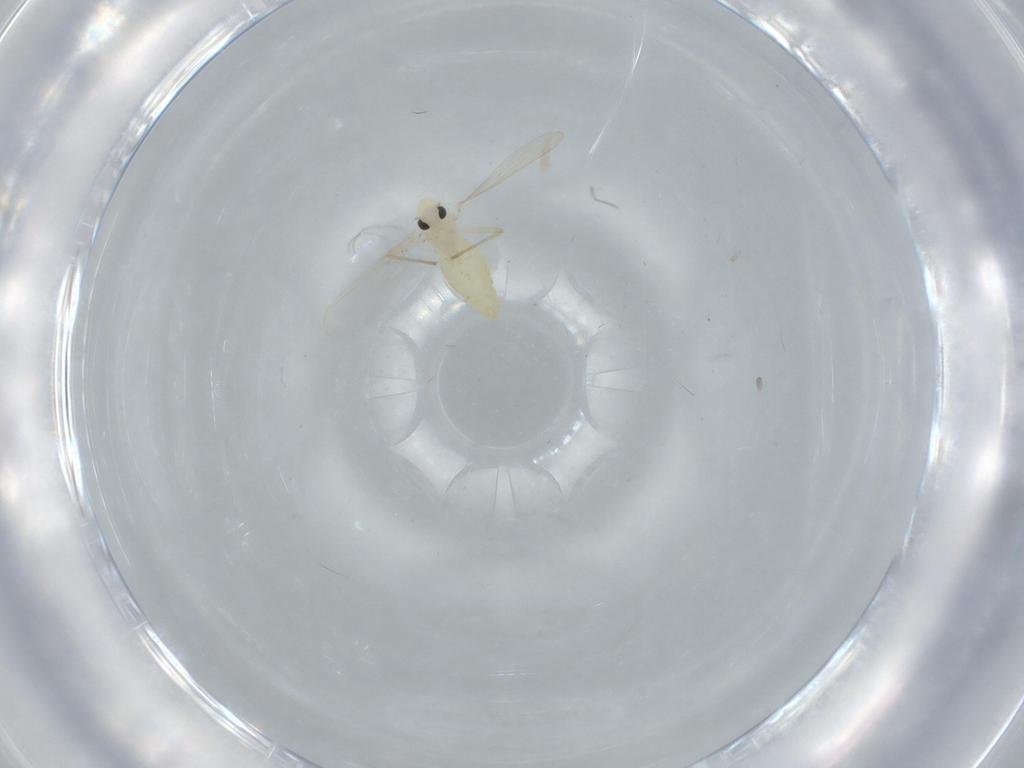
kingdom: Animalia
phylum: Arthropoda
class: Insecta
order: Diptera
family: Chironomidae
